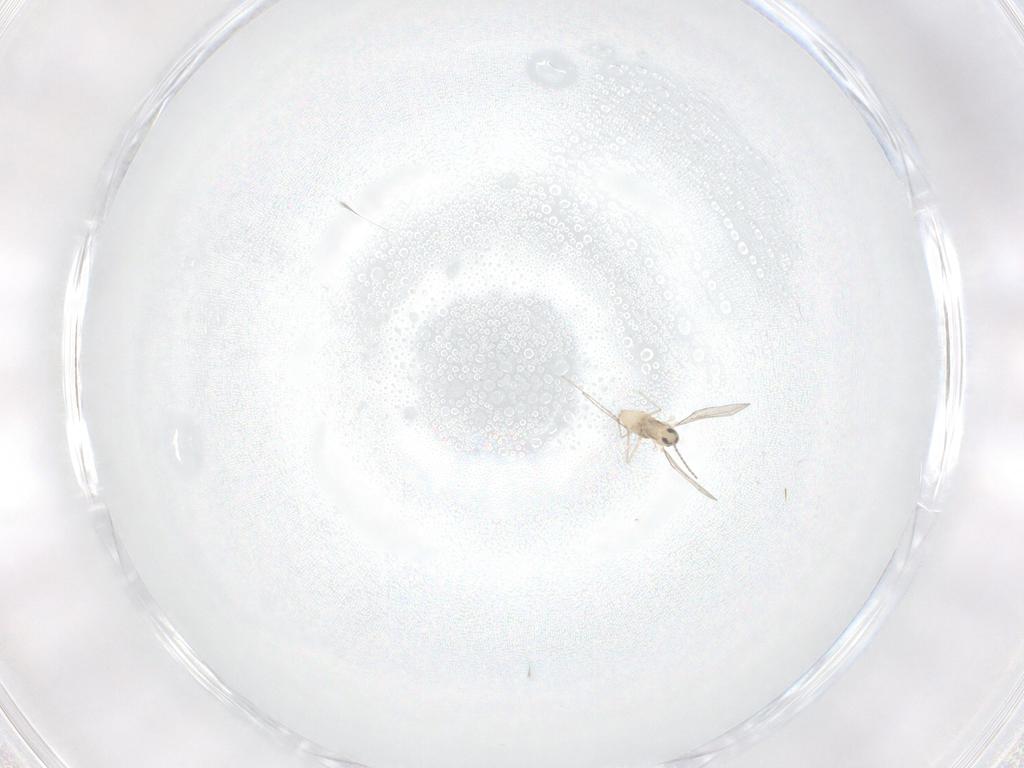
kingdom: Animalia
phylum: Arthropoda
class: Insecta
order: Diptera
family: Cecidomyiidae
